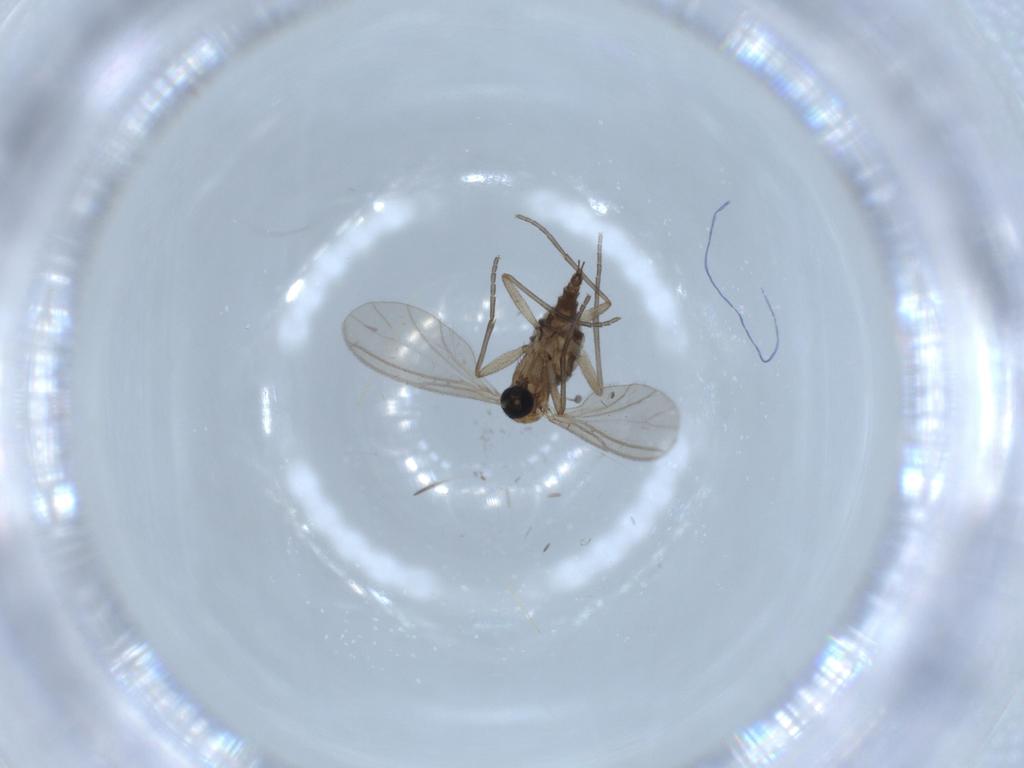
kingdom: Animalia
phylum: Arthropoda
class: Insecta
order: Diptera
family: Sciaridae
